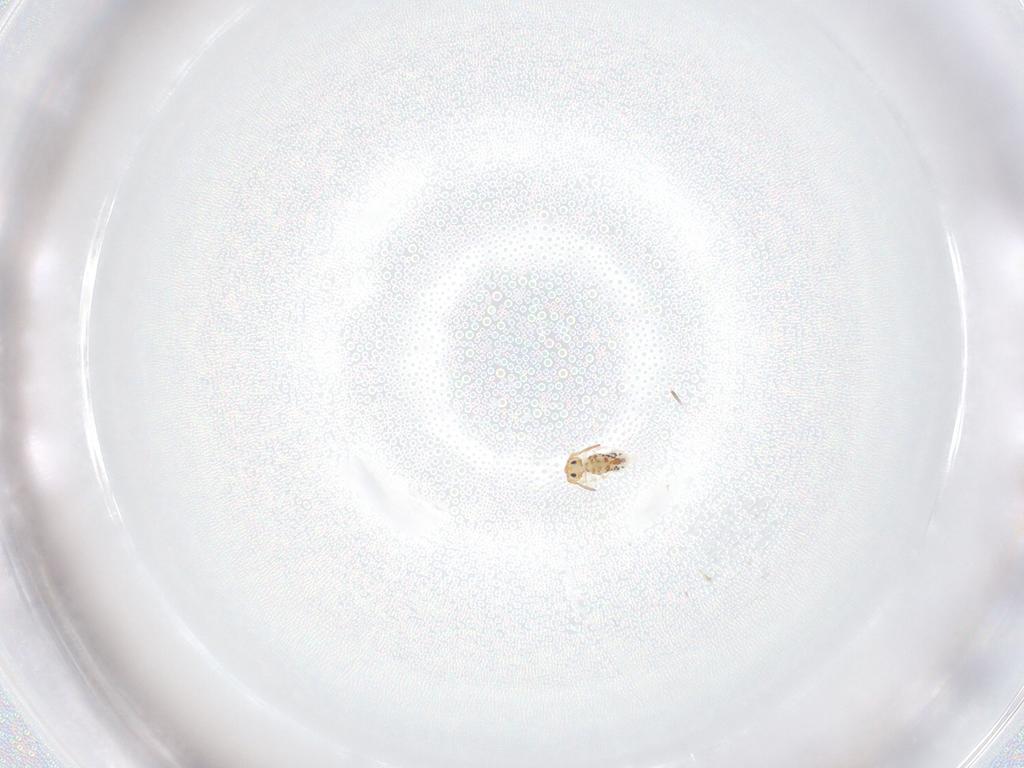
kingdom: Animalia
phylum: Arthropoda
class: Collembola
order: Symphypleona
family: Bourletiellidae
